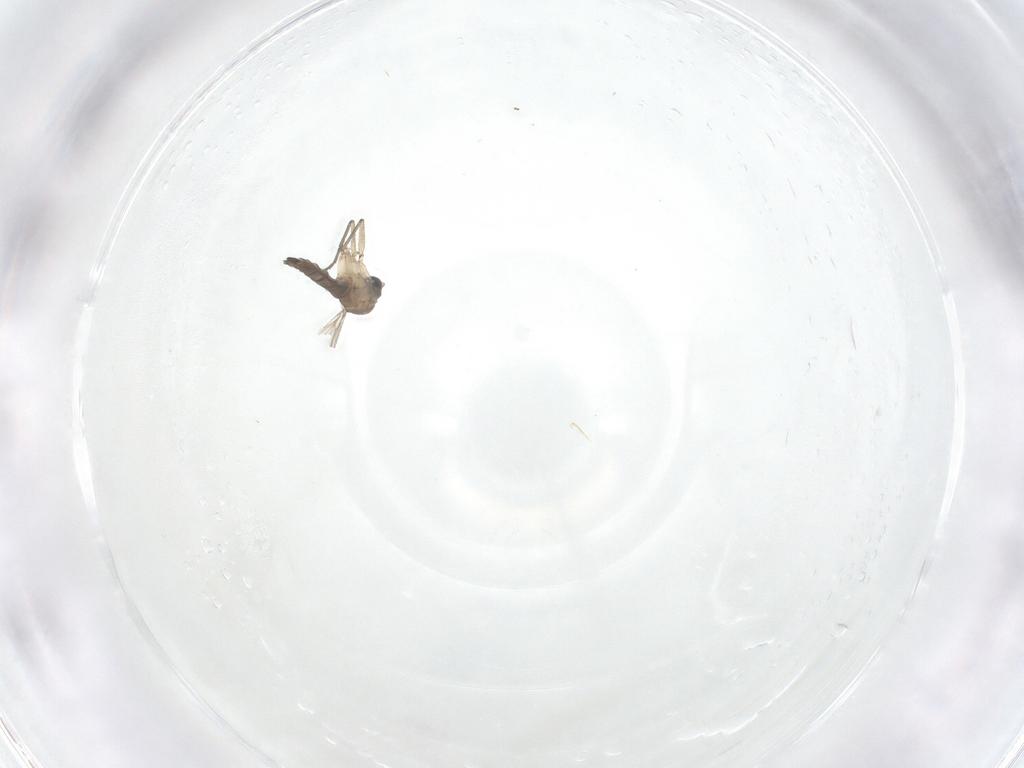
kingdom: Animalia
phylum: Arthropoda
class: Insecta
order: Diptera
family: Sciaridae
